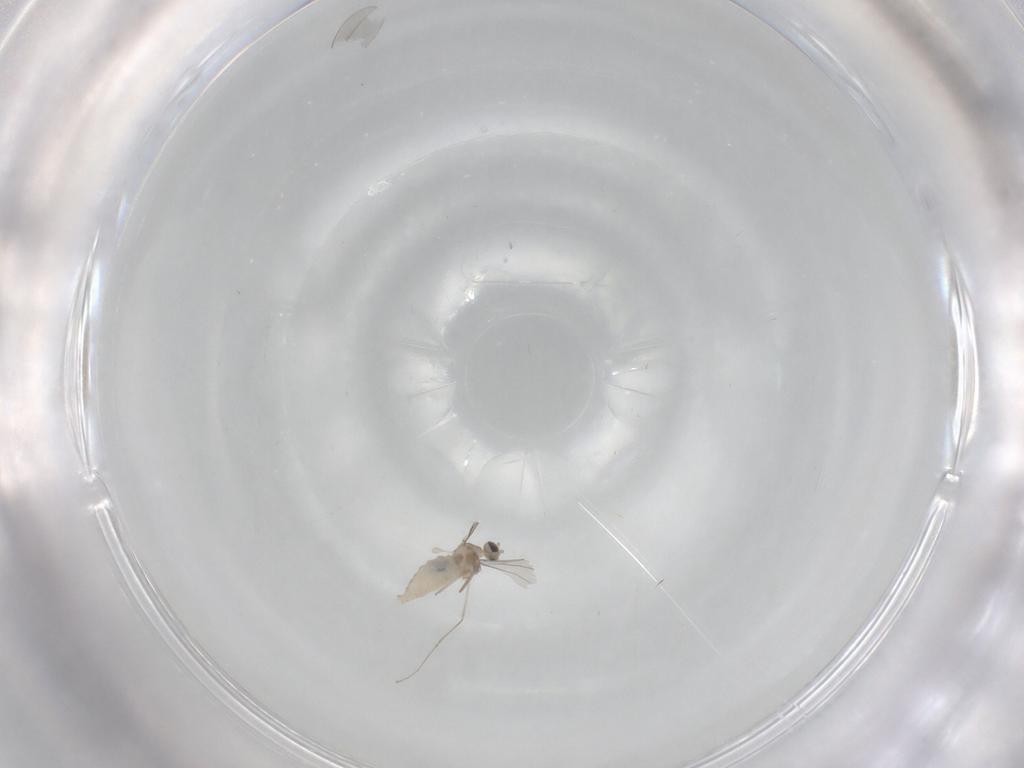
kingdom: Animalia
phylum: Arthropoda
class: Insecta
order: Diptera
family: Cecidomyiidae
